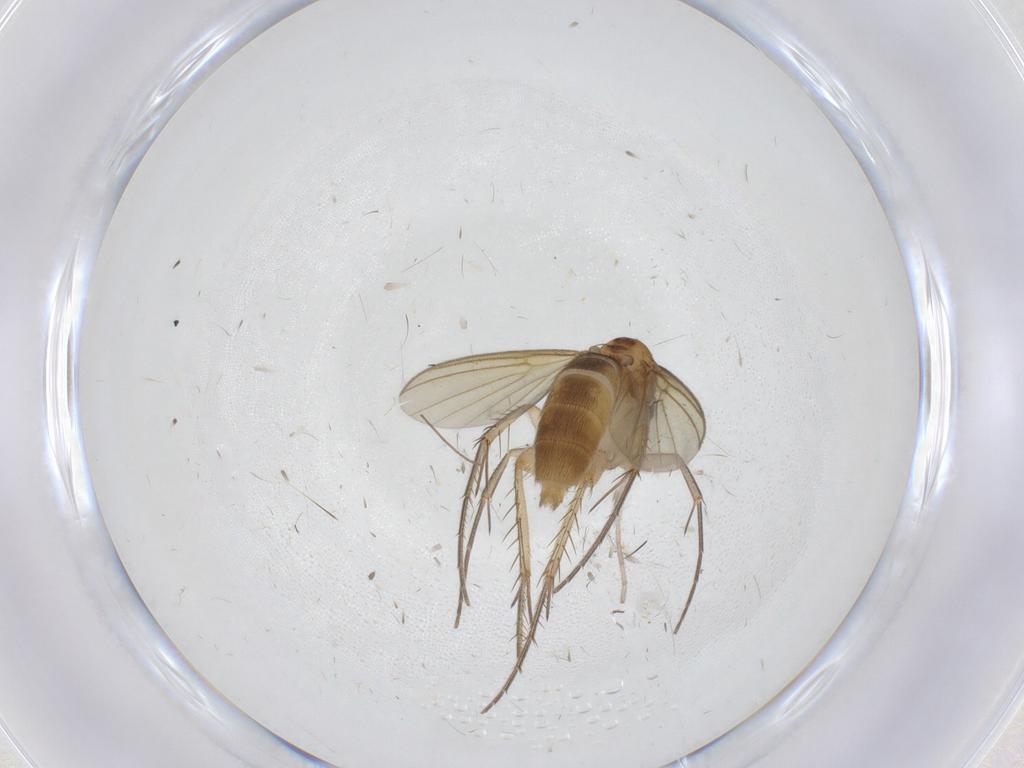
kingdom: Animalia
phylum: Arthropoda
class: Insecta
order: Diptera
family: Mycetophilidae
